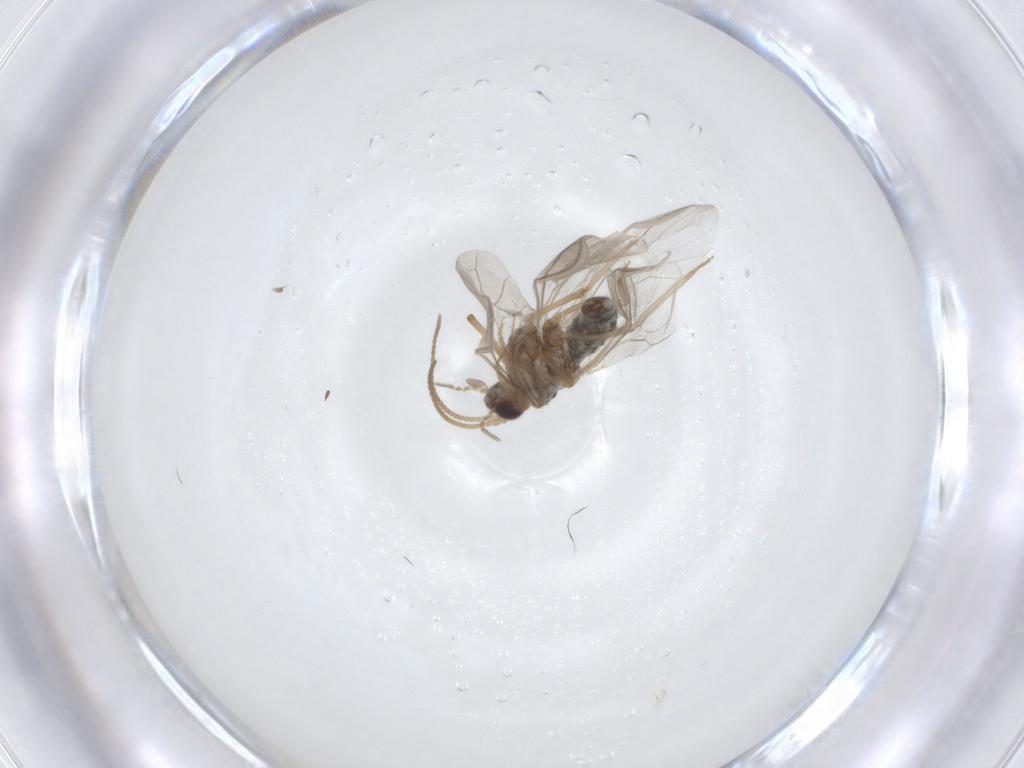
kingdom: Animalia
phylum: Arthropoda
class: Insecta
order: Neuroptera
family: Coniopterygidae
